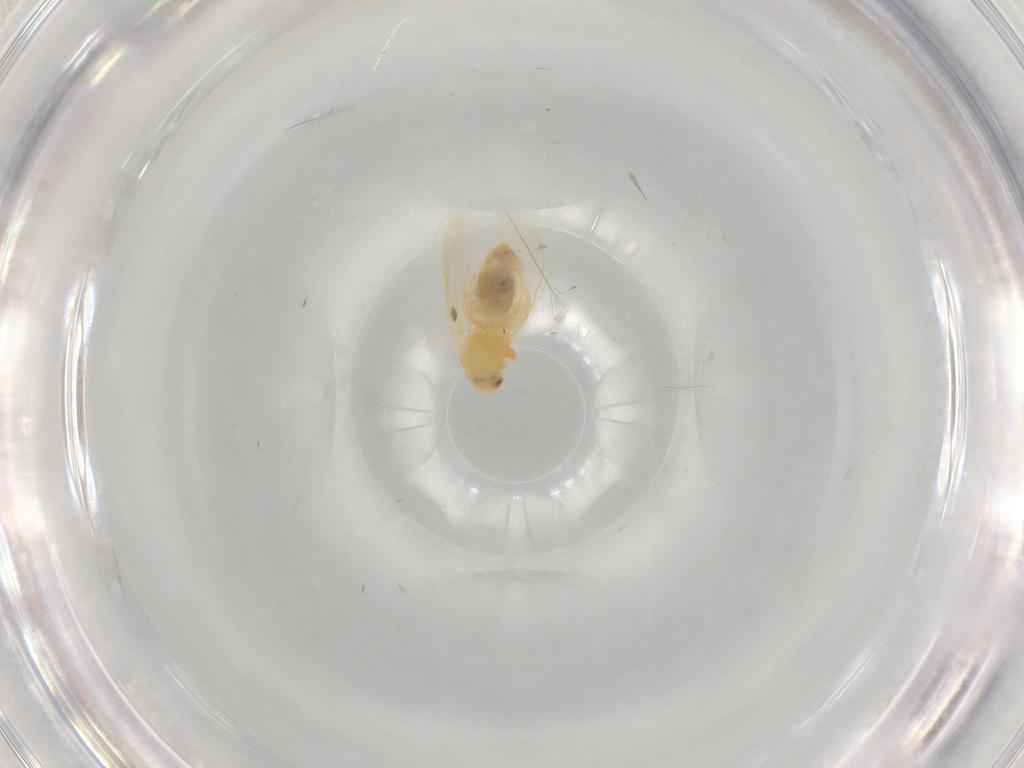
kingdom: Animalia
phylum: Arthropoda
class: Insecta
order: Hemiptera
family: Aleyrodidae
